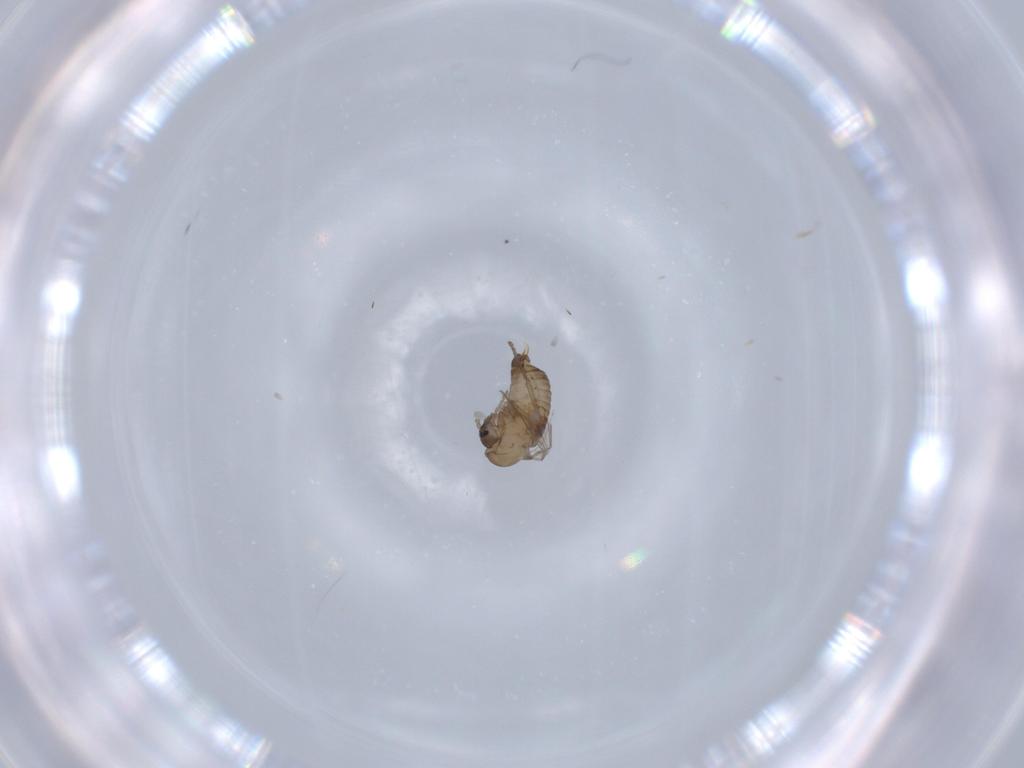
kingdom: Animalia
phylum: Arthropoda
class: Insecta
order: Diptera
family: Psychodidae
